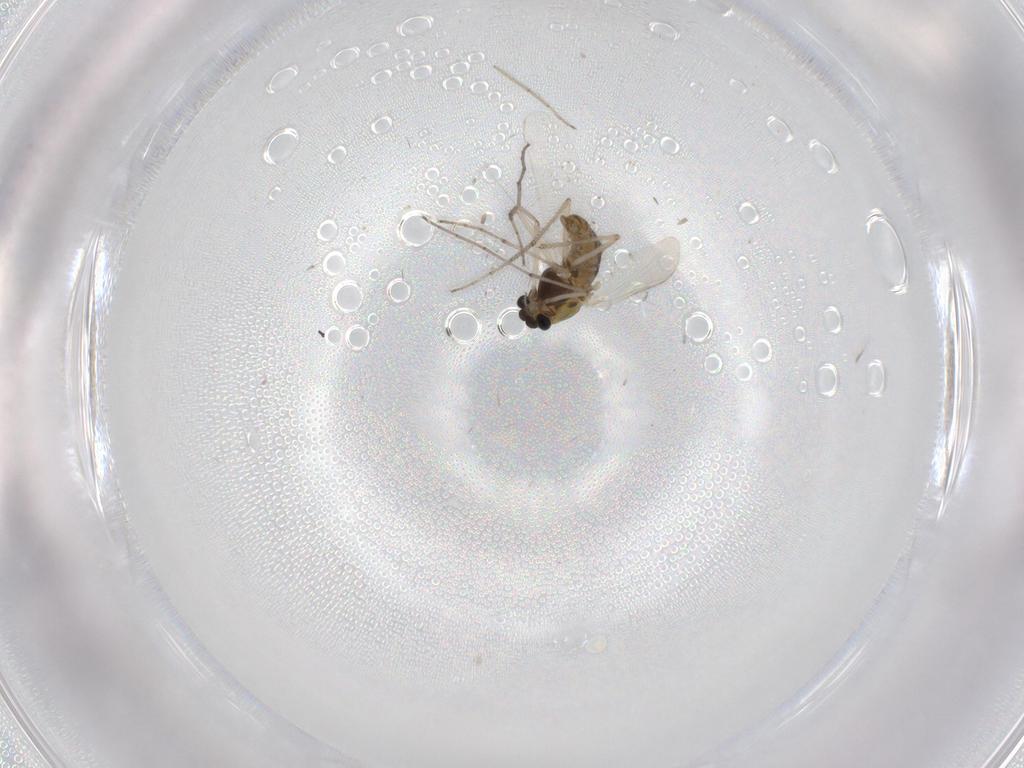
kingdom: Animalia
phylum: Arthropoda
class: Insecta
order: Diptera
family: Chironomidae
